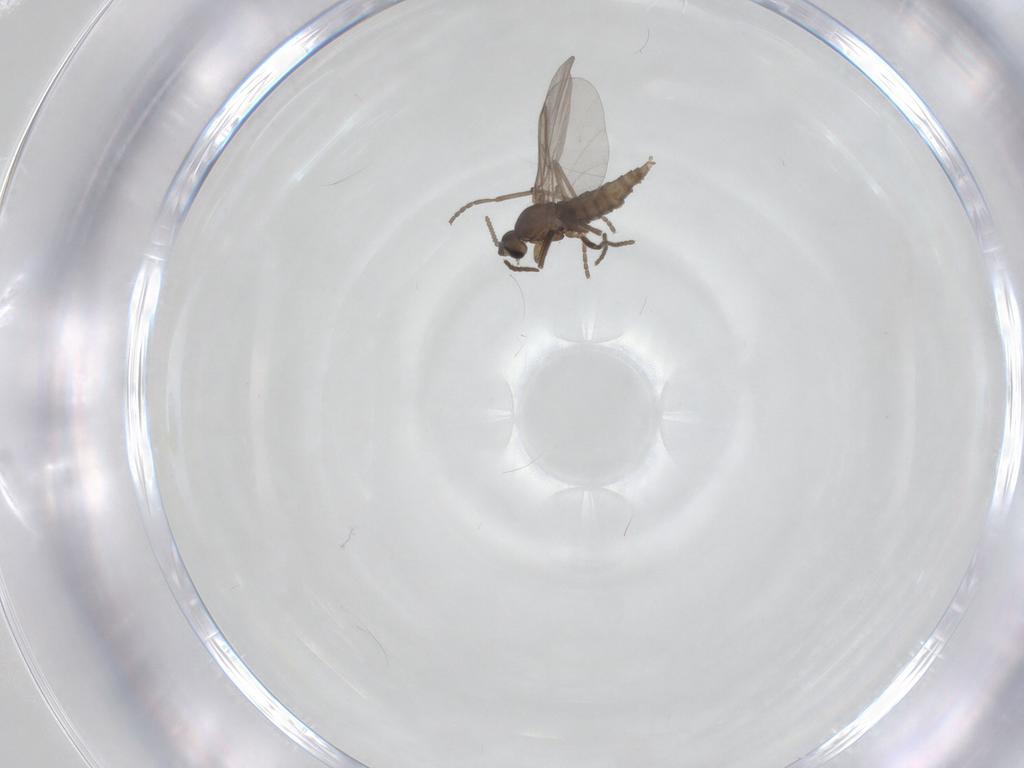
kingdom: Animalia
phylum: Arthropoda
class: Insecta
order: Diptera
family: Cecidomyiidae
